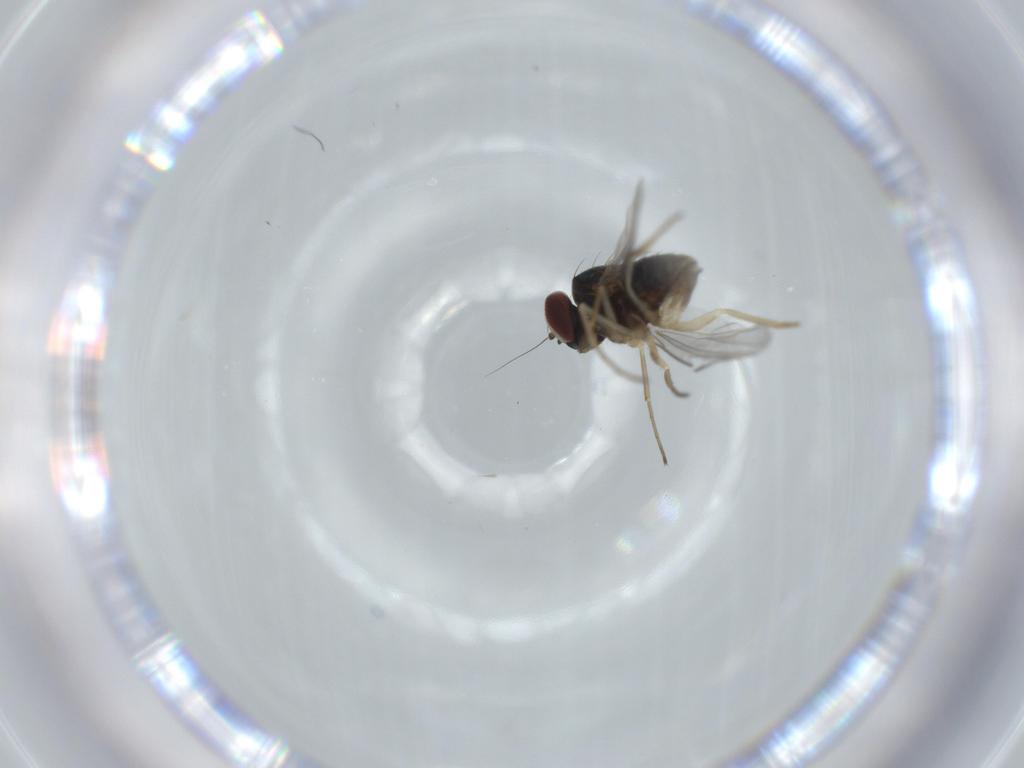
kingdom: Animalia
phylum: Arthropoda
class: Insecta
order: Diptera
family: Dolichopodidae
